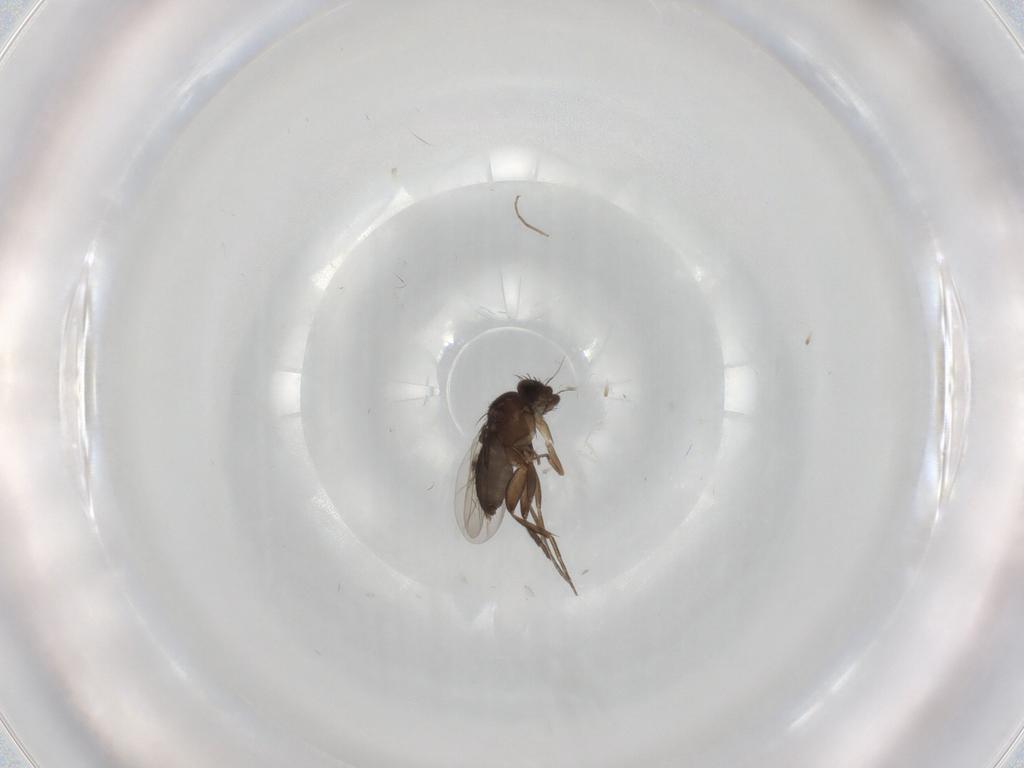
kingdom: Animalia
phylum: Arthropoda
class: Insecta
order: Diptera
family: Phoridae
